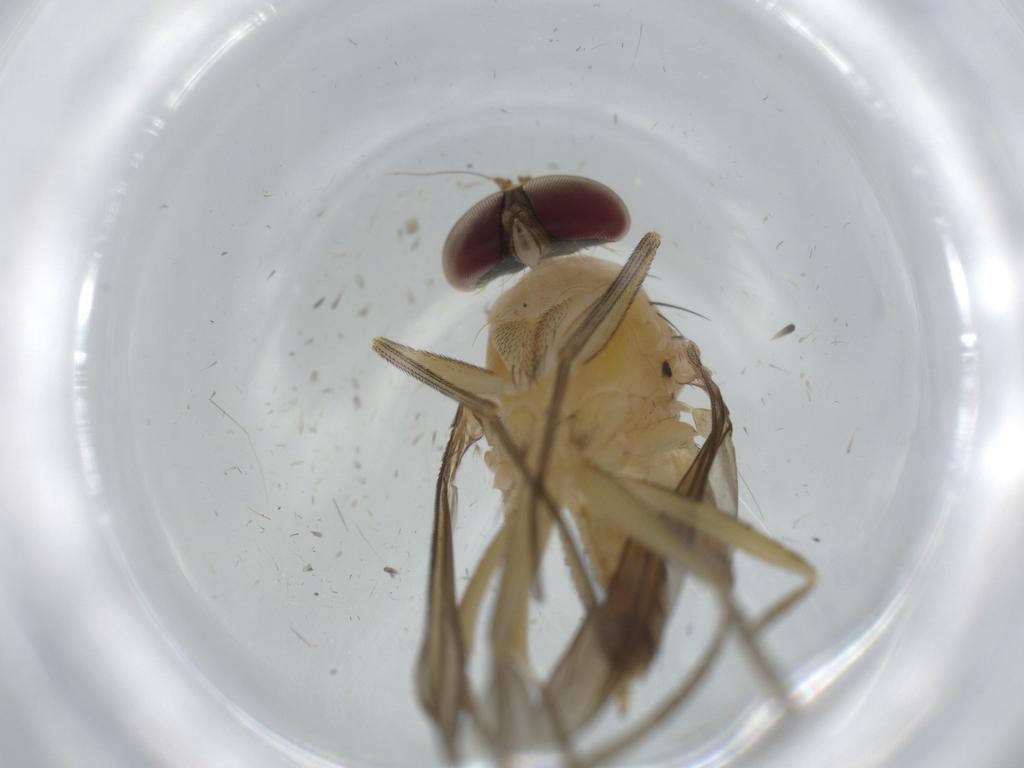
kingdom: Animalia
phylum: Arthropoda
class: Insecta
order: Diptera
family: Dolichopodidae
